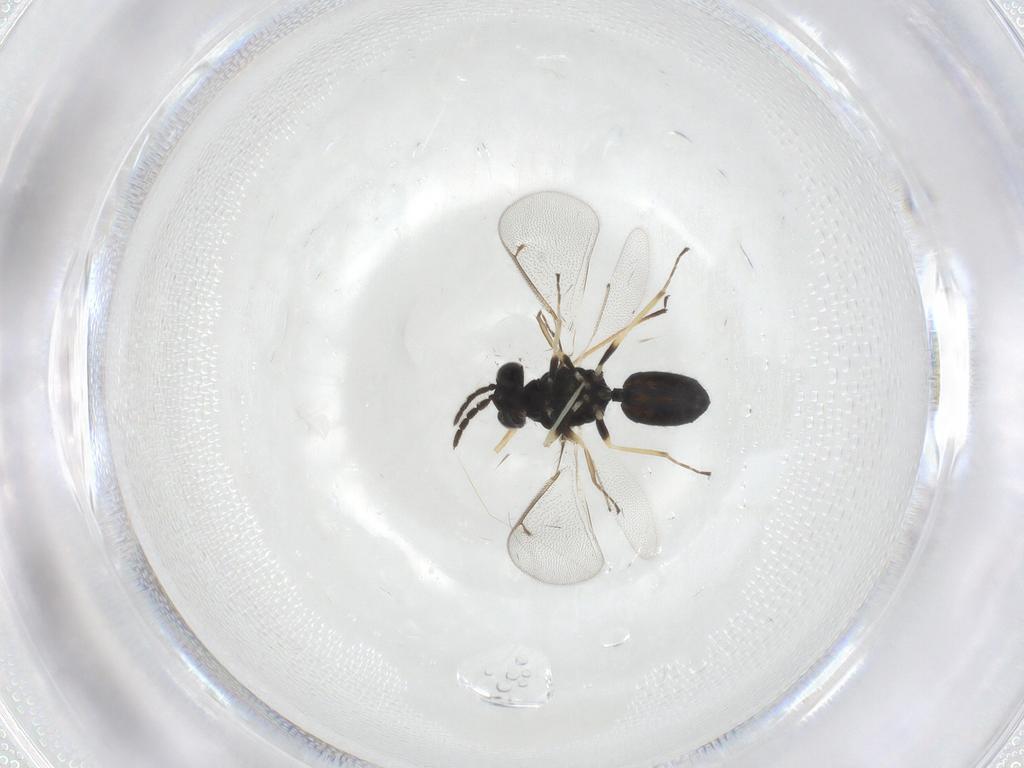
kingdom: Animalia
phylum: Arthropoda
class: Insecta
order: Hymenoptera
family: Eulophidae
